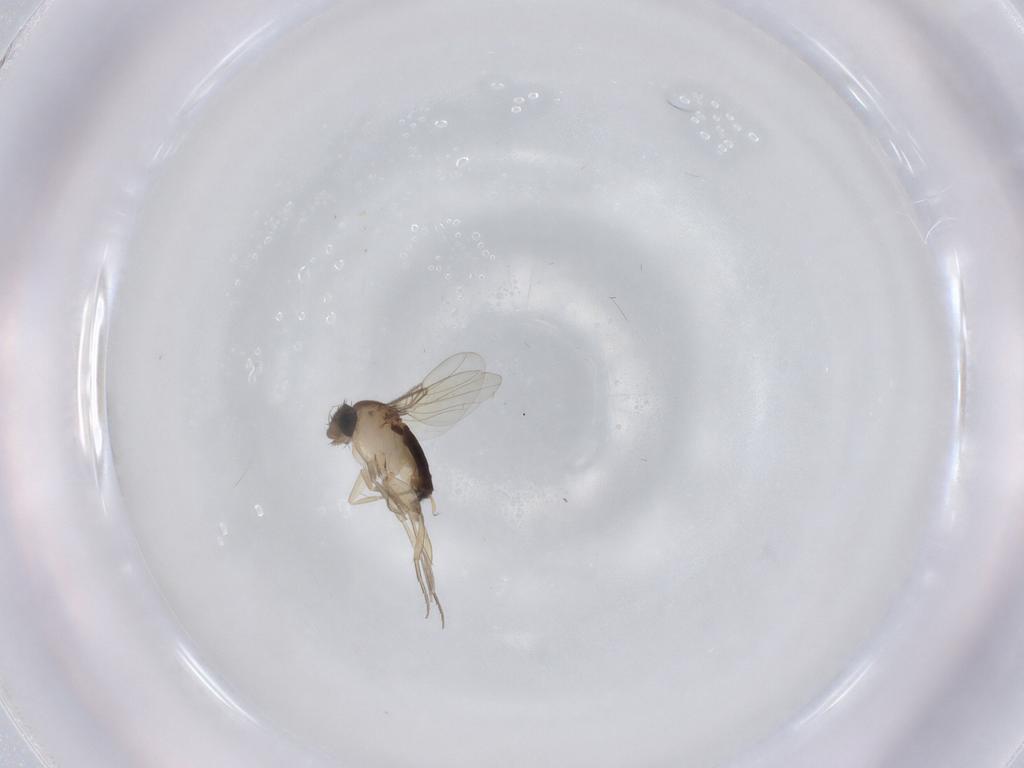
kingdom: Animalia
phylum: Arthropoda
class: Insecta
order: Diptera
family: Phoridae
